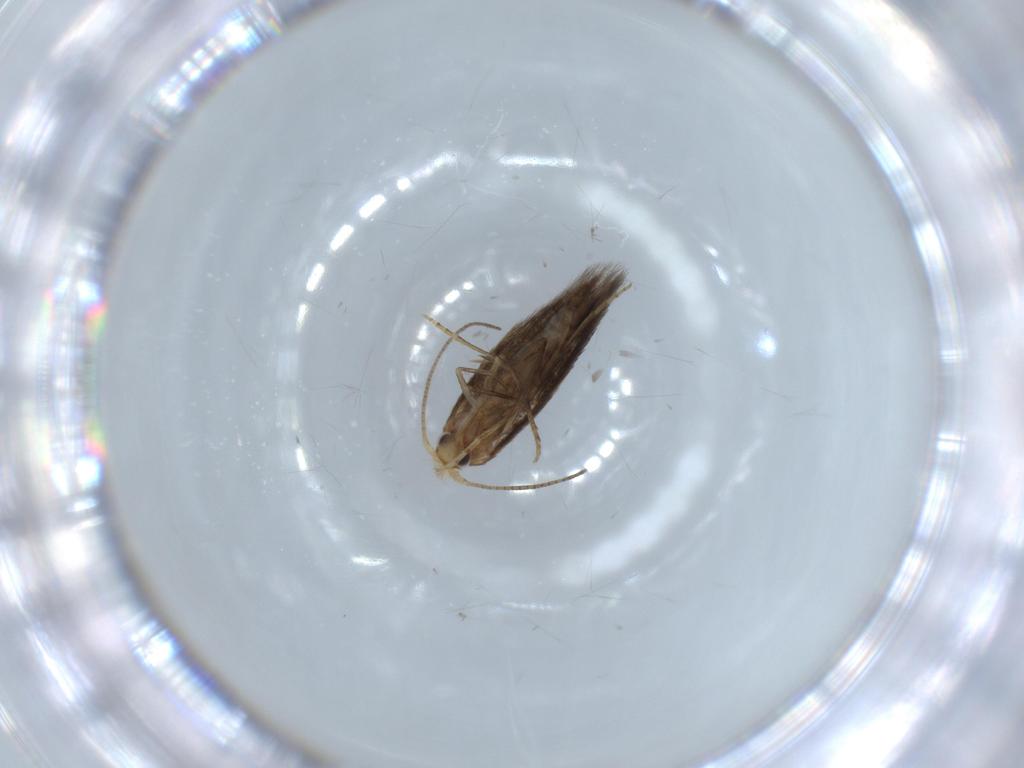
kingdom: Animalia
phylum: Arthropoda
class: Insecta
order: Lepidoptera
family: Bucculatricidae
